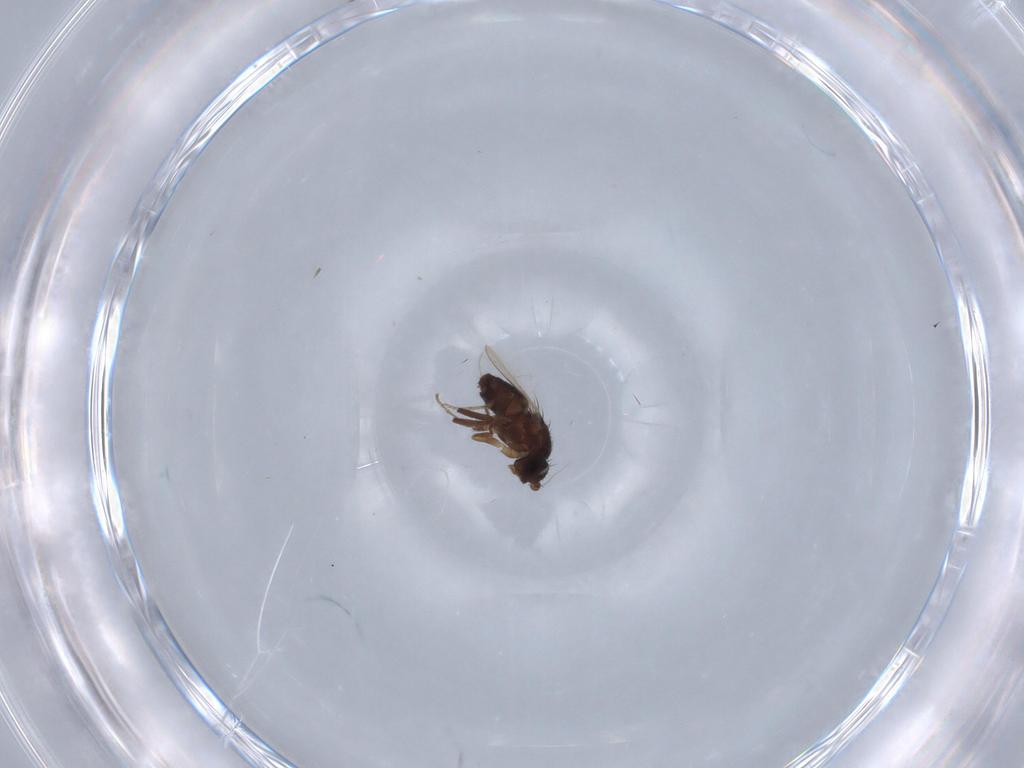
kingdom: Animalia
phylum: Arthropoda
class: Insecta
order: Diptera
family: Sphaeroceridae
